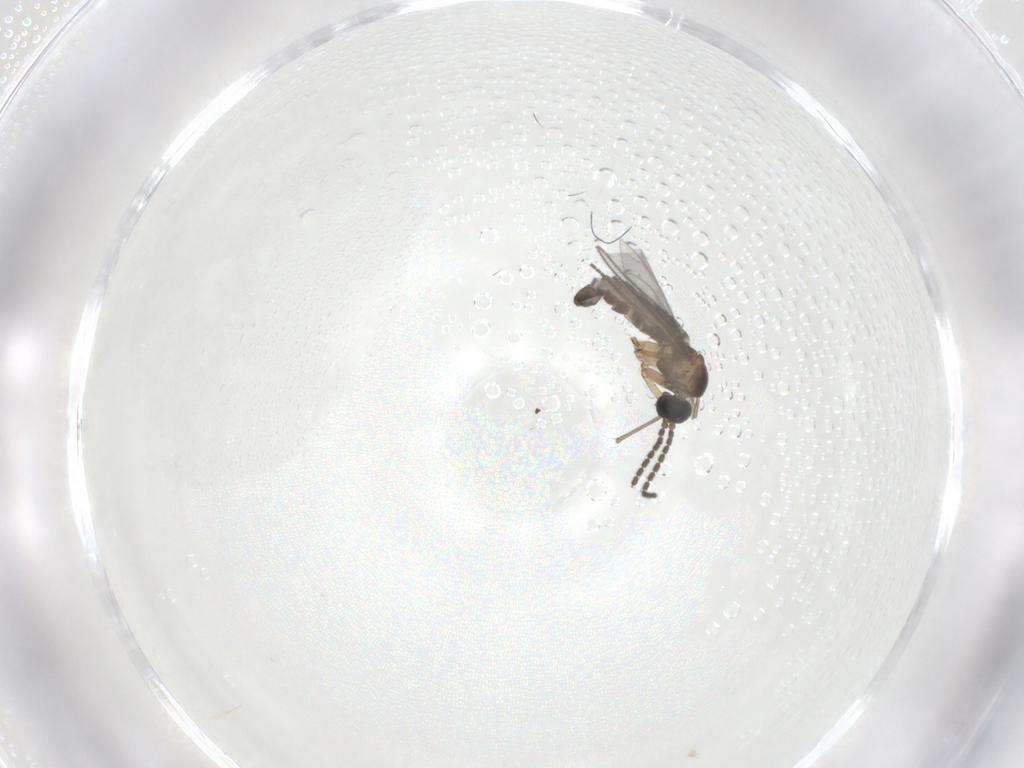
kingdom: Animalia
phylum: Arthropoda
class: Insecta
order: Diptera
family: Sciaridae
